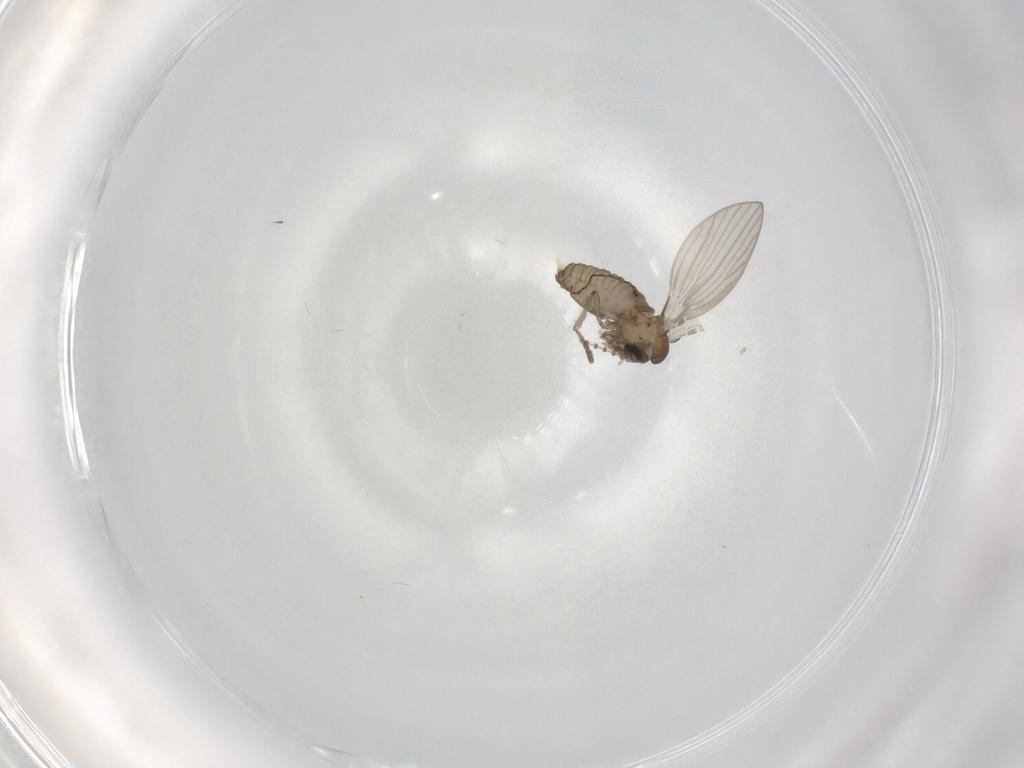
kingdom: Animalia
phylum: Arthropoda
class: Insecta
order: Diptera
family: Psychodidae
